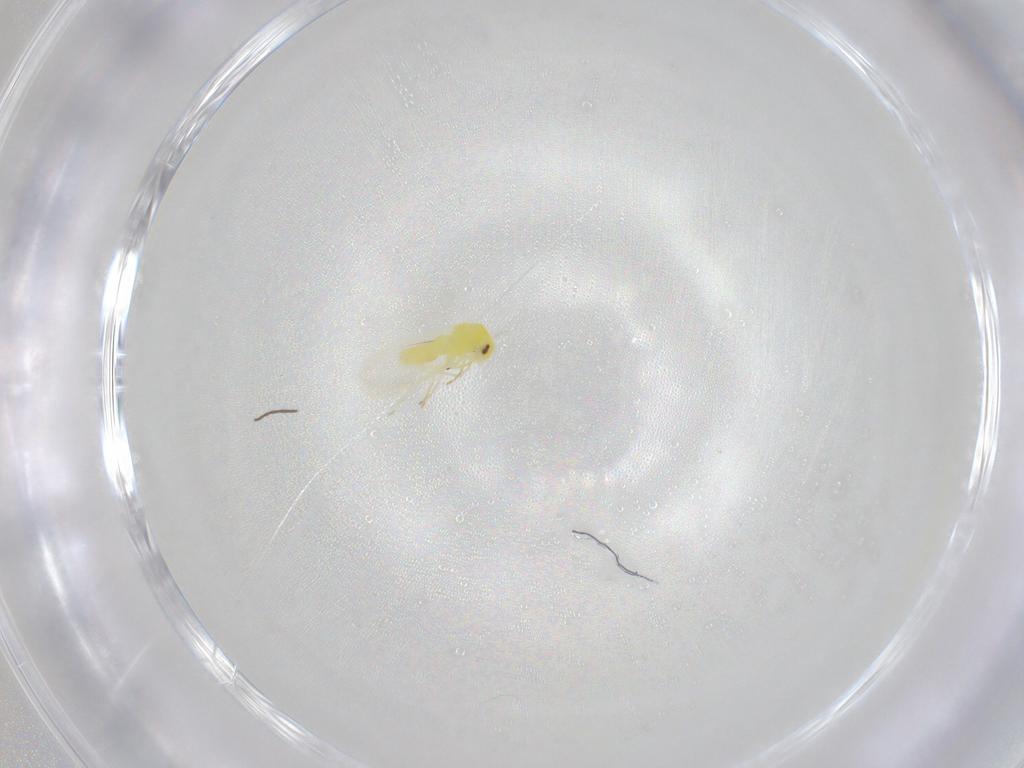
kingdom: Animalia
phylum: Arthropoda
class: Insecta
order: Hemiptera
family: Aleyrodidae
